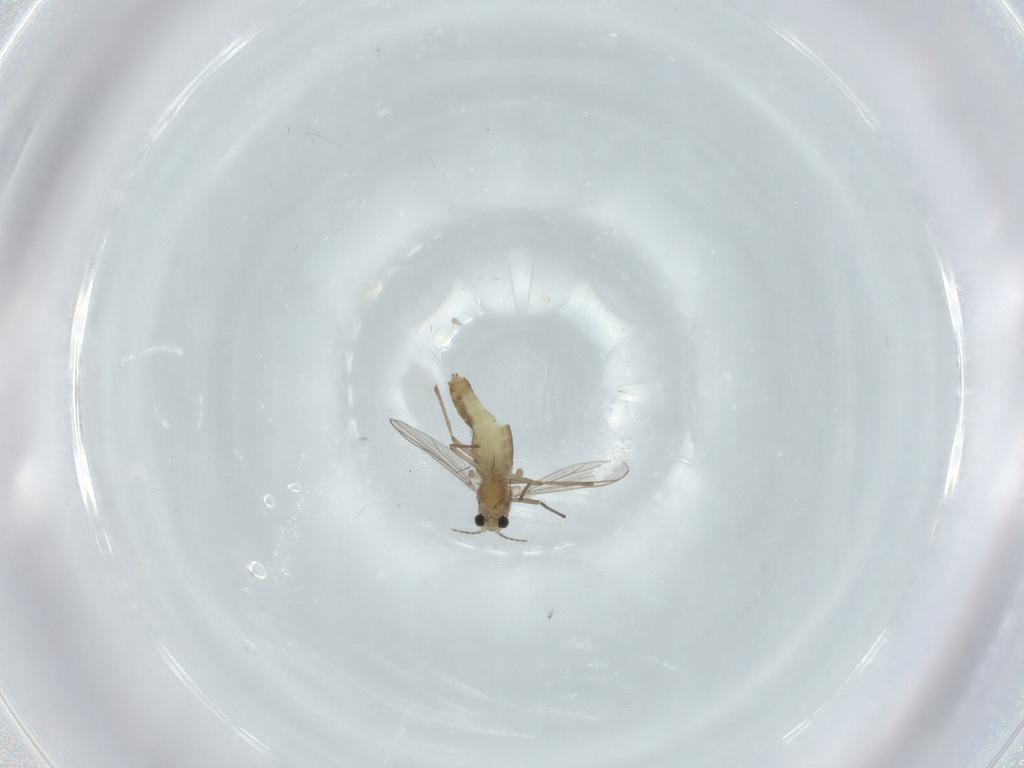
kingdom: Animalia
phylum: Arthropoda
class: Insecta
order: Diptera
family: Chironomidae
